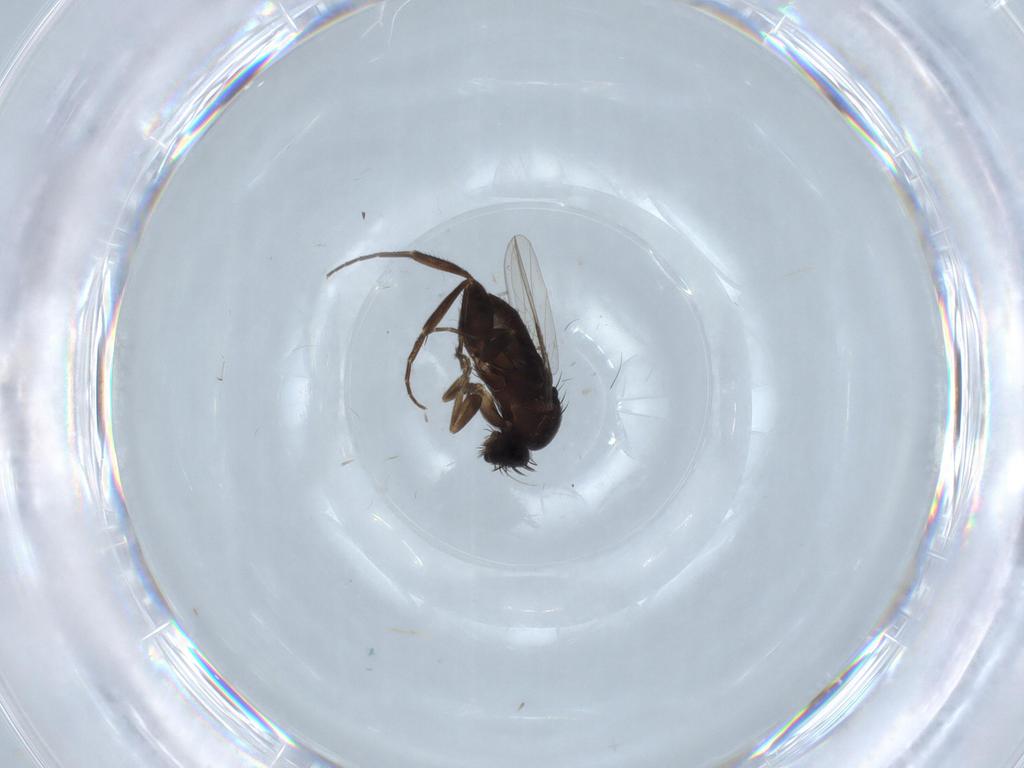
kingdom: Animalia
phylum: Arthropoda
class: Insecta
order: Diptera
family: Phoridae
